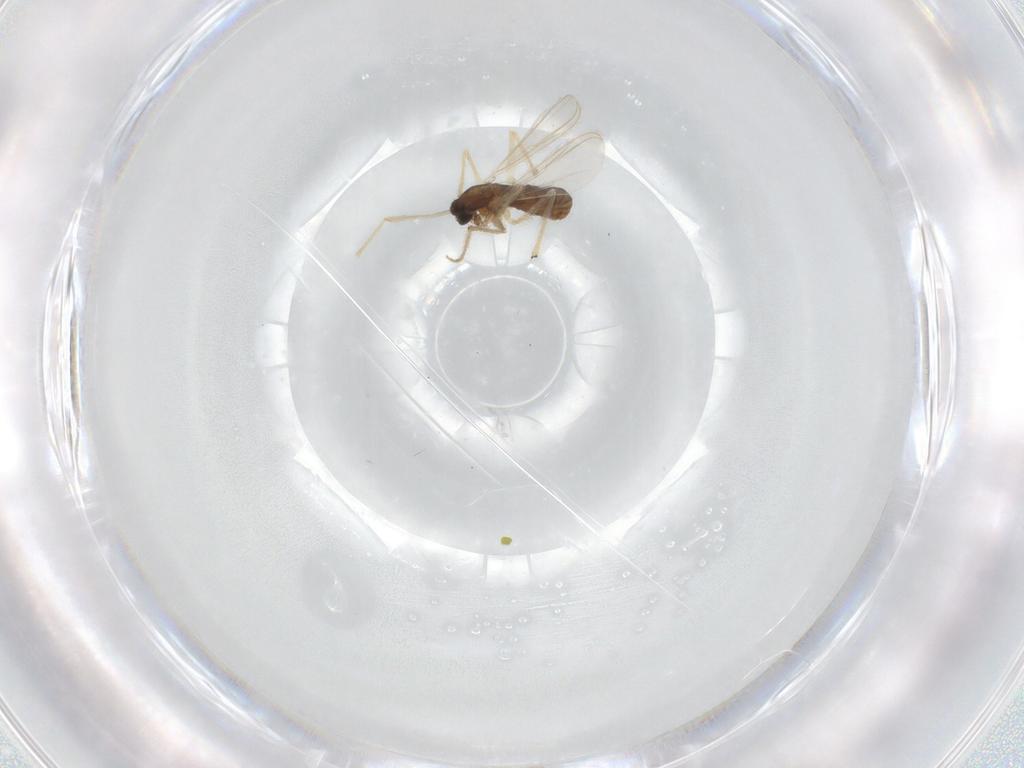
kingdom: Animalia
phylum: Arthropoda
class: Insecta
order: Diptera
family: Chironomidae
